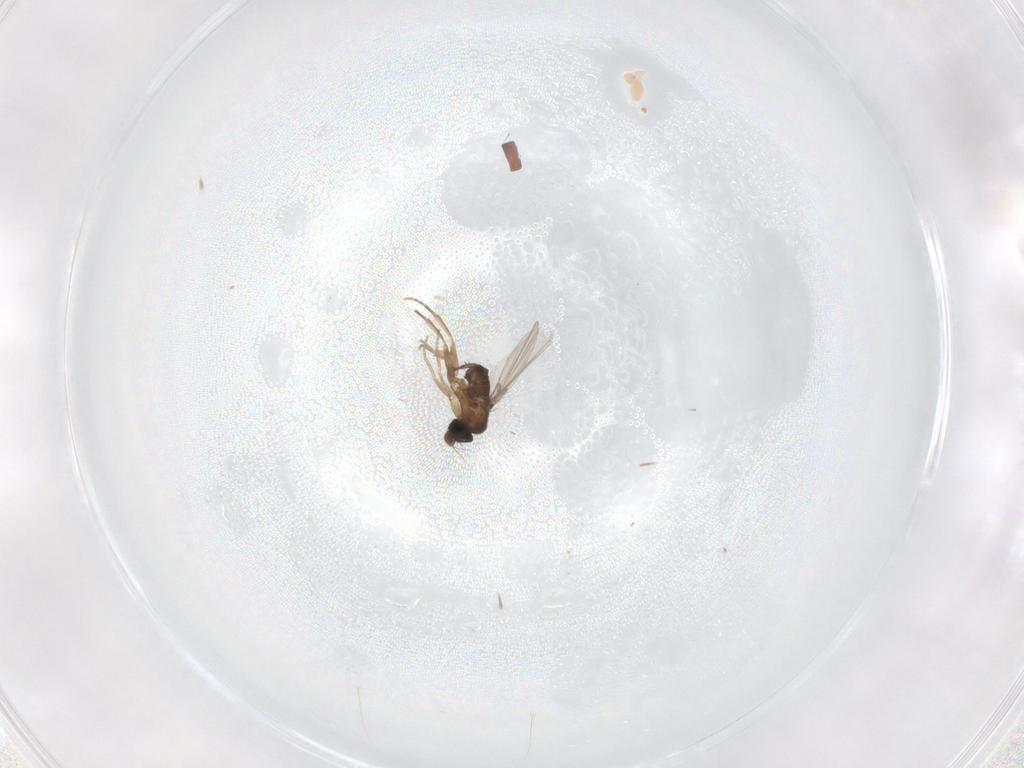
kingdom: Animalia
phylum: Arthropoda
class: Insecta
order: Diptera
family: Phoridae
